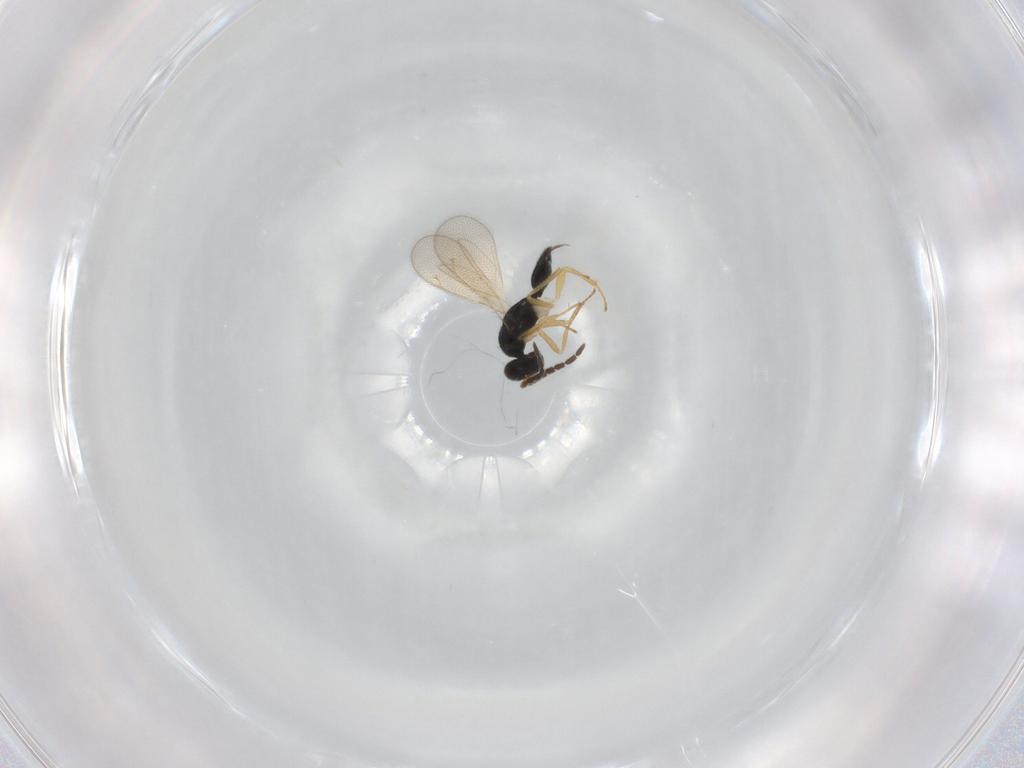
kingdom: Animalia
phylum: Arthropoda
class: Insecta
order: Hymenoptera
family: Eulophidae
